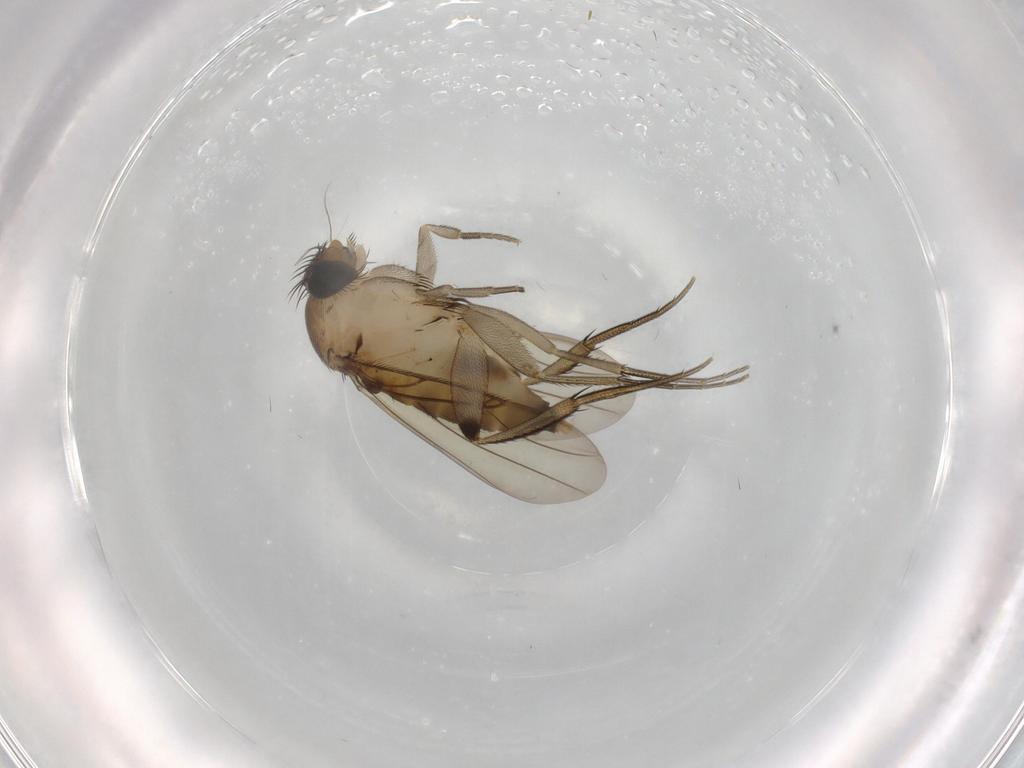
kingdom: Animalia
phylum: Arthropoda
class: Insecta
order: Diptera
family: Phoridae
